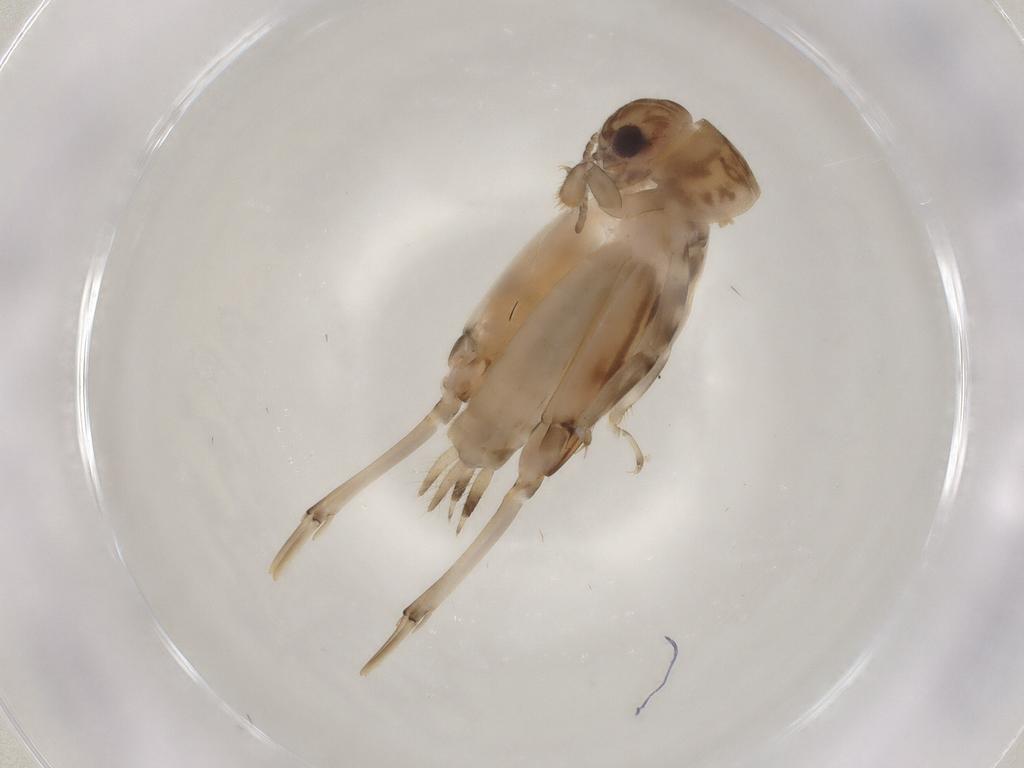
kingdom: Animalia
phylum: Arthropoda
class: Insecta
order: Orthoptera
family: Tridactylidae
